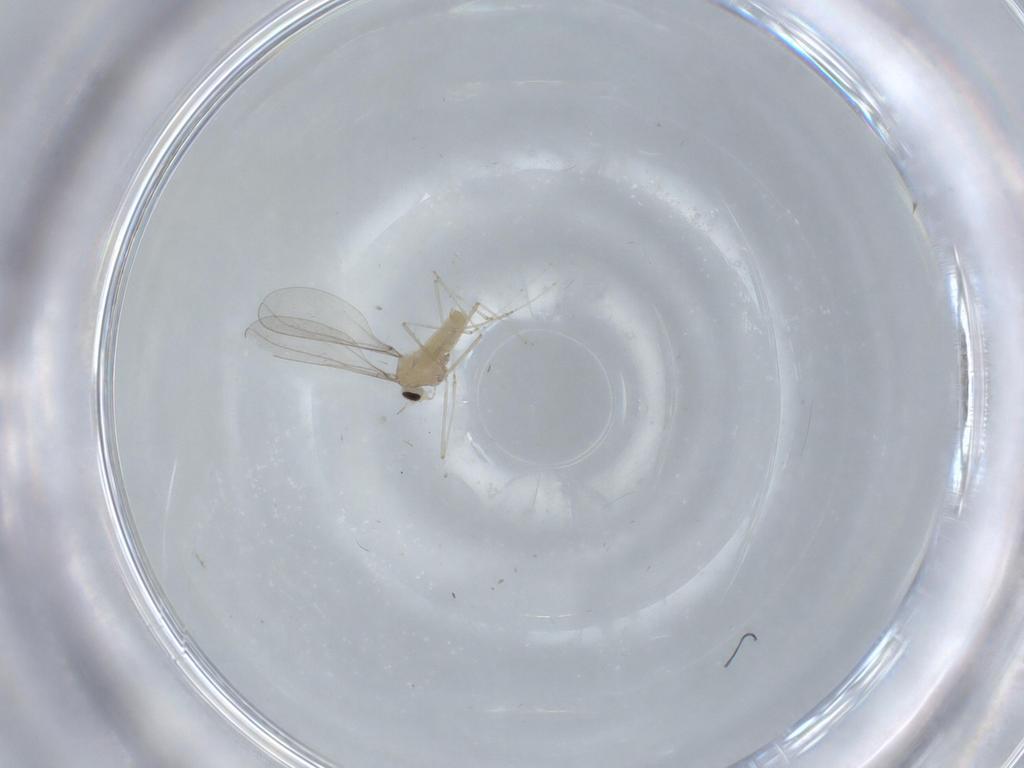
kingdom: Animalia
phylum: Arthropoda
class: Insecta
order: Diptera
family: Cecidomyiidae
